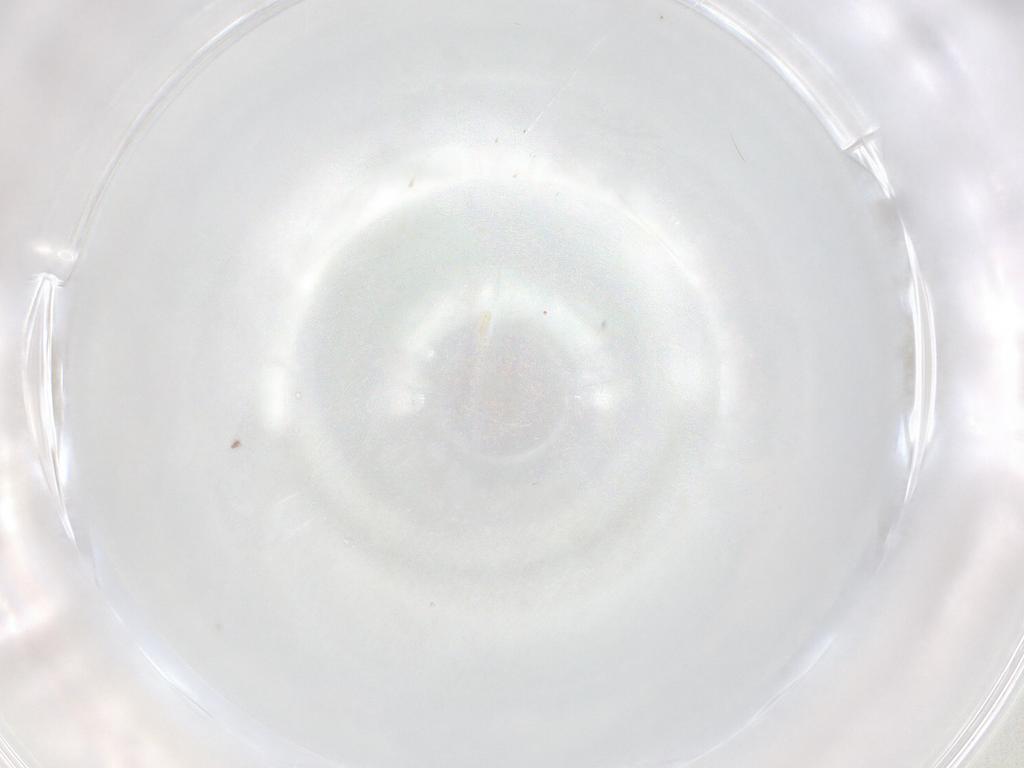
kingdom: Animalia
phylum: Arthropoda
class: Insecta
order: Diptera
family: Cecidomyiidae
